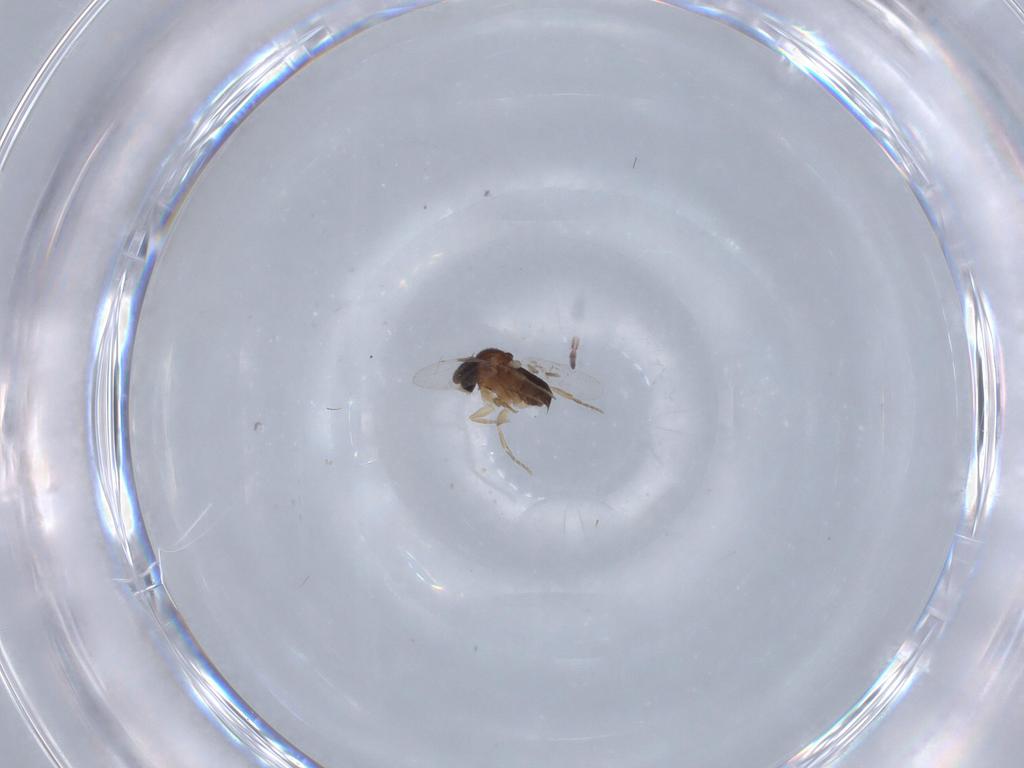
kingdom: Animalia
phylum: Arthropoda
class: Insecta
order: Diptera
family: Phoridae
